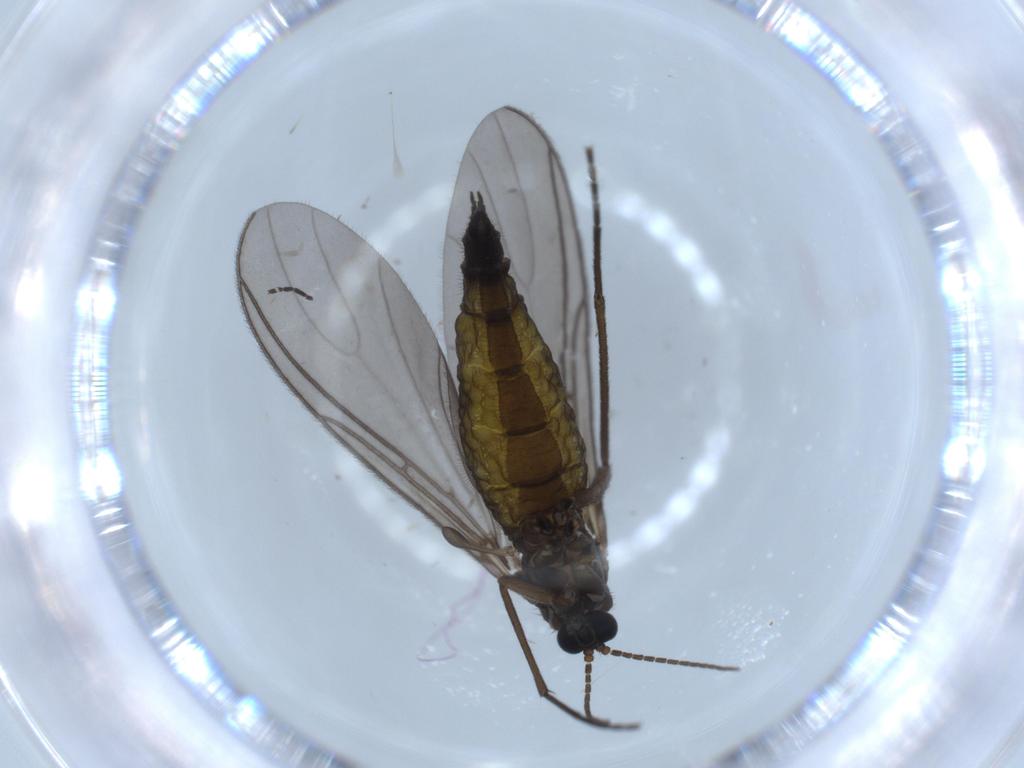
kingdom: Animalia
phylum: Arthropoda
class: Insecta
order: Diptera
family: Sciaridae
